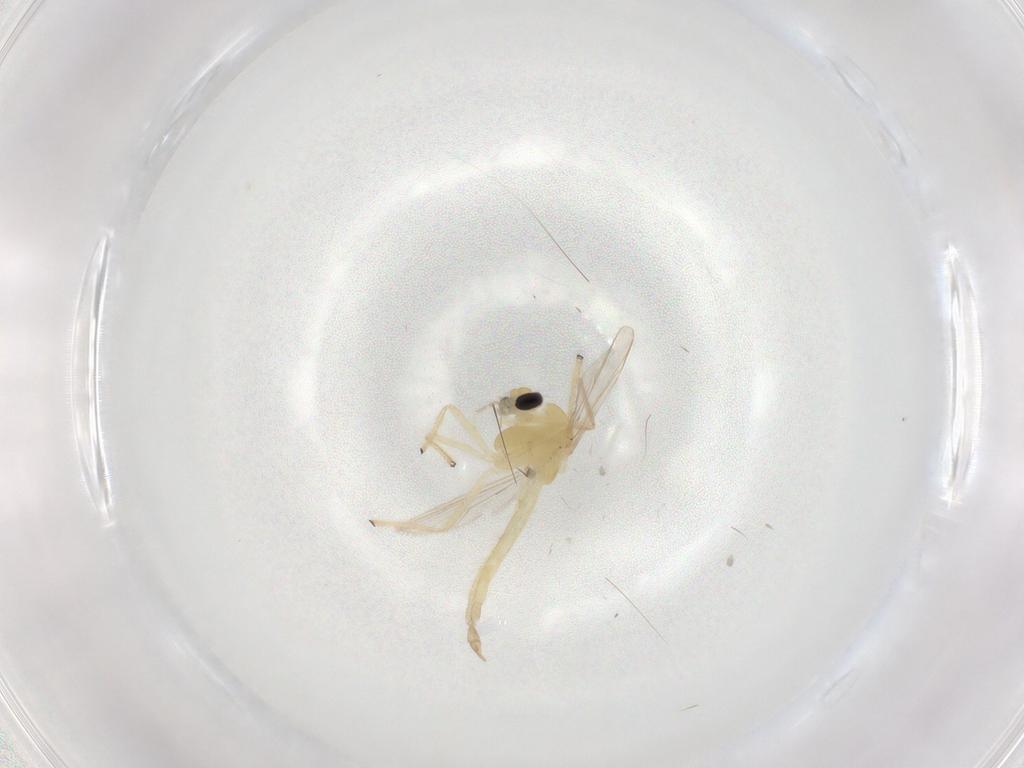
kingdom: Animalia
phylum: Arthropoda
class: Insecta
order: Diptera
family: Chironomidae
